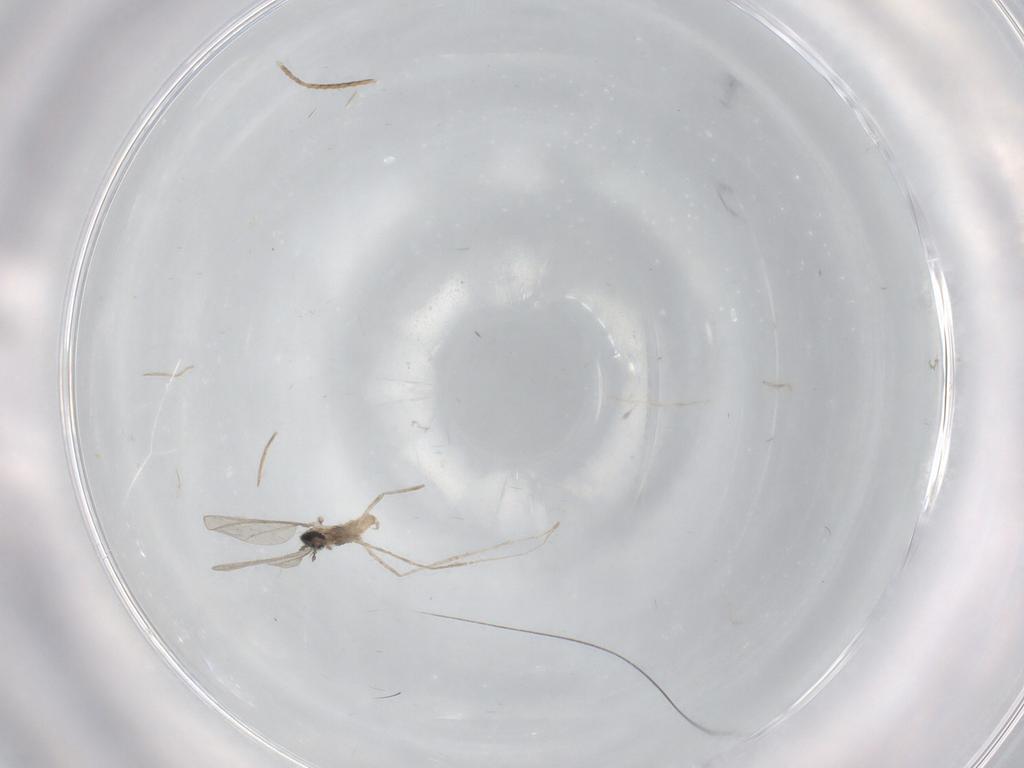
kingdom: Animalia
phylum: Arthropoda
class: Insecta
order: Diptera
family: Cecidomyiidae
